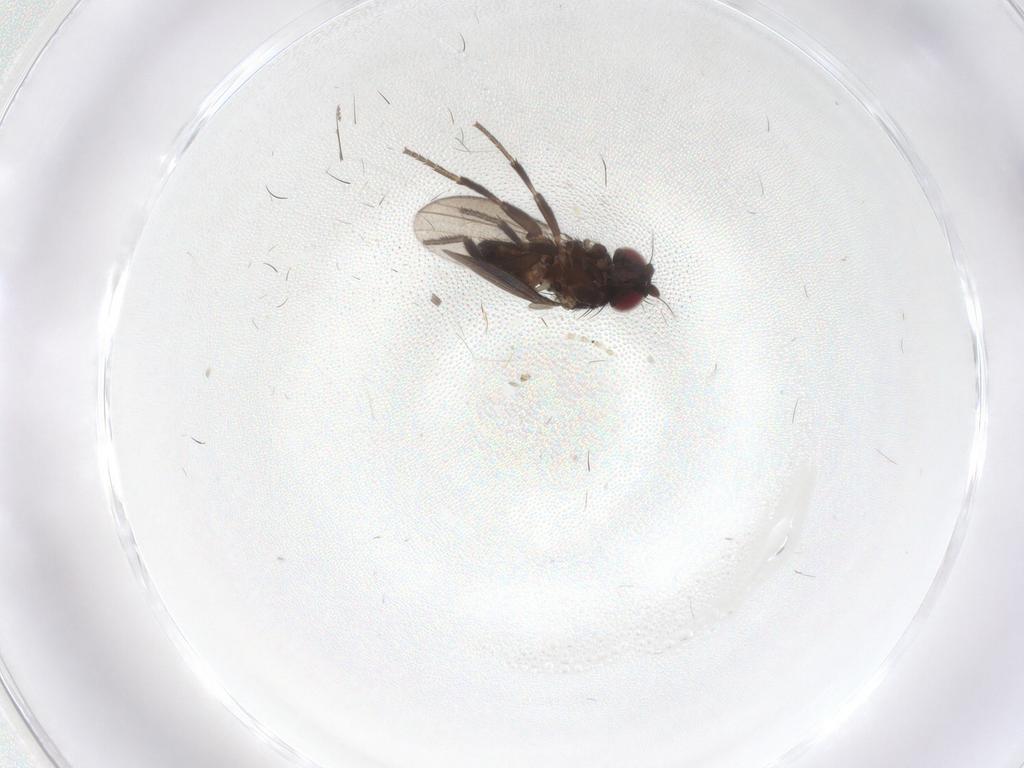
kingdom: Animalia
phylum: Arthropoda
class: Insecta
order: Diptera
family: Milichiidae
